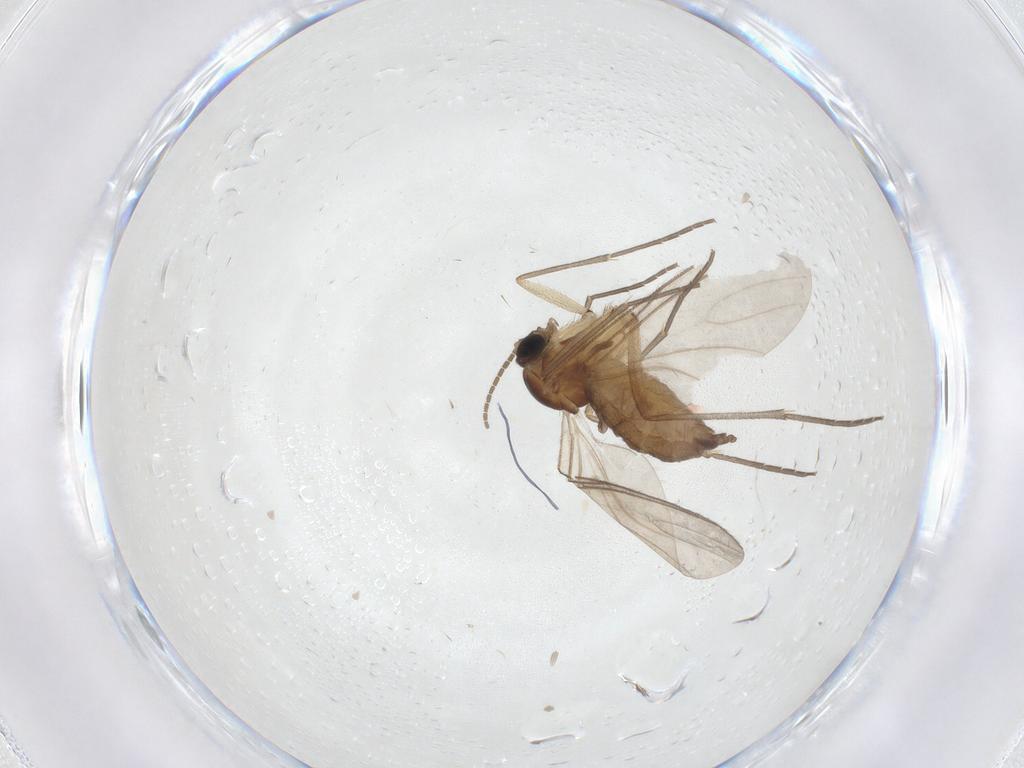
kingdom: Animalia
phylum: Arthropoda
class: Insecta
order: Diptera
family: Sciaridae
